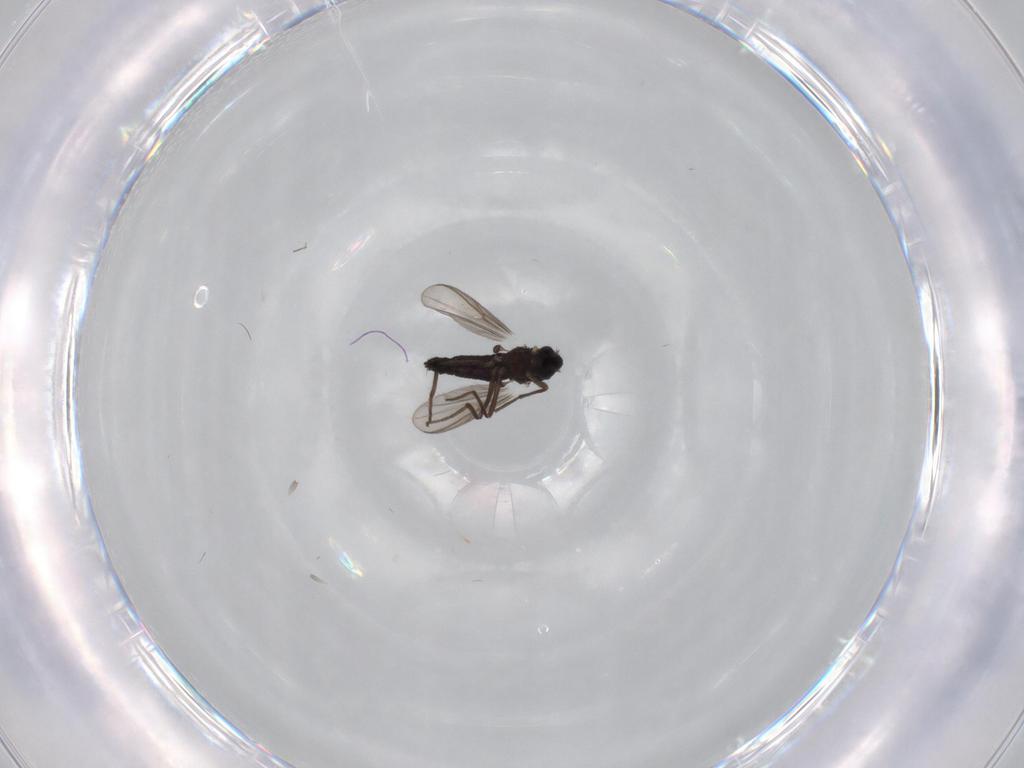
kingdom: Animalia
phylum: Arthropoda
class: Insecta
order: Diptera
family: Chironomidae
